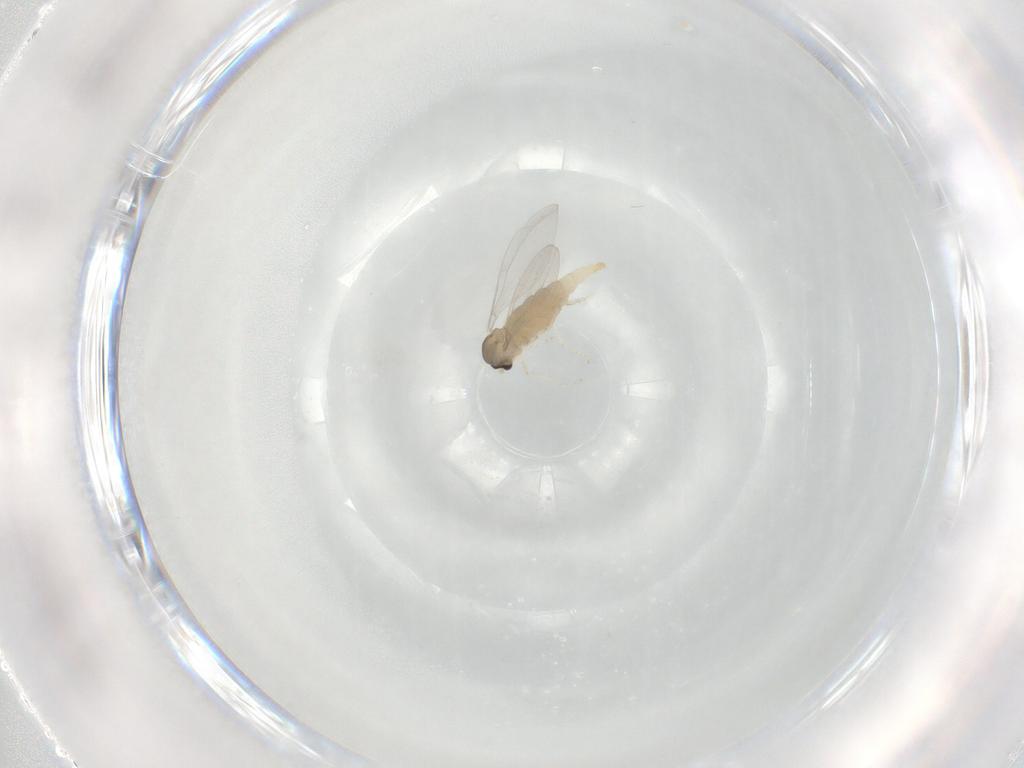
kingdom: Animalia
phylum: Arthropoda
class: Insecta
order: Diptera
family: Cecidomyiidae
